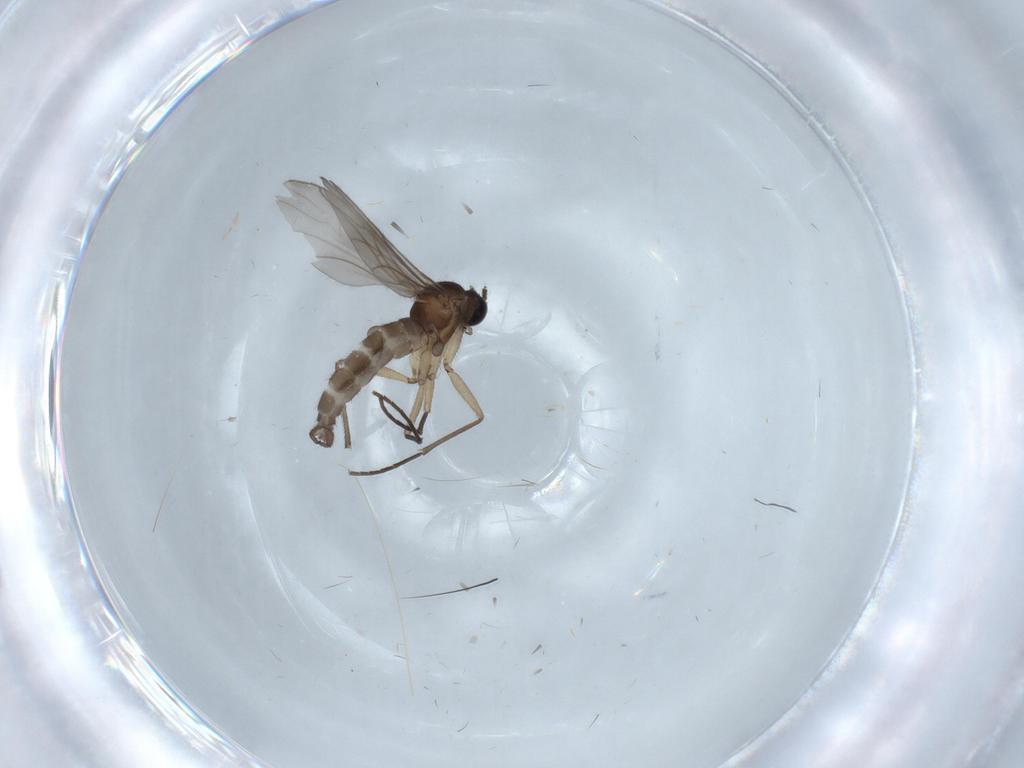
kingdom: Animalia
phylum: Arthropoda
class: Insecta
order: Diptera
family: Sciaridae
